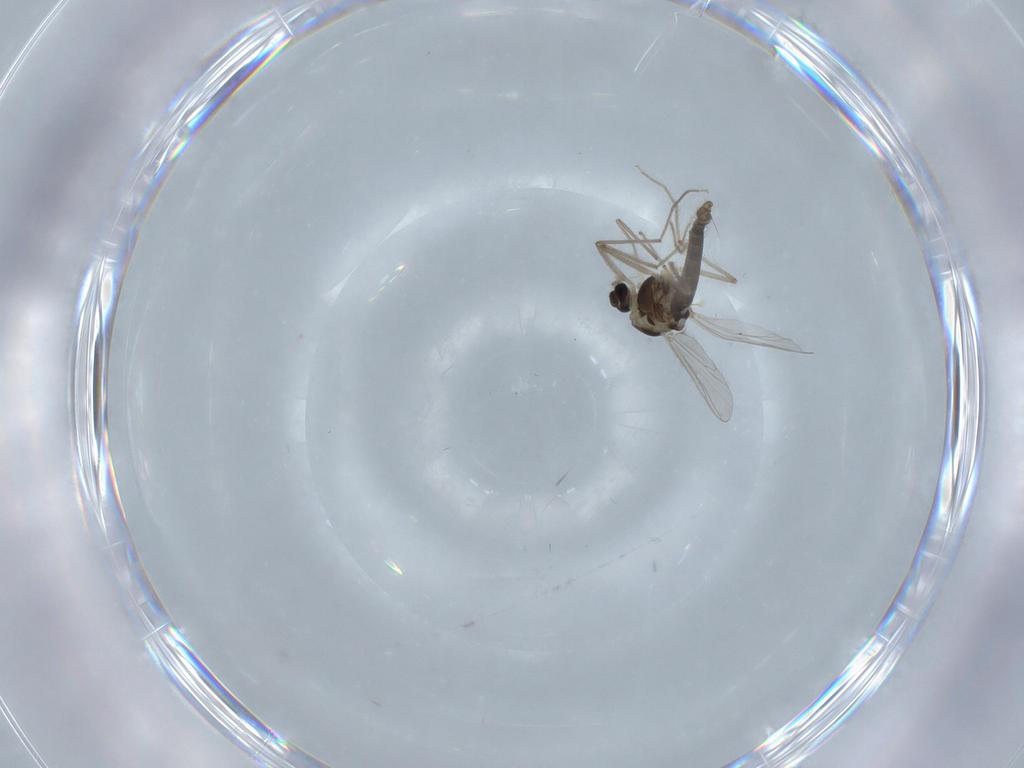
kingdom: Animalia
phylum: Arthropoda
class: Insecta
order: Diptera
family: Chironomidae
